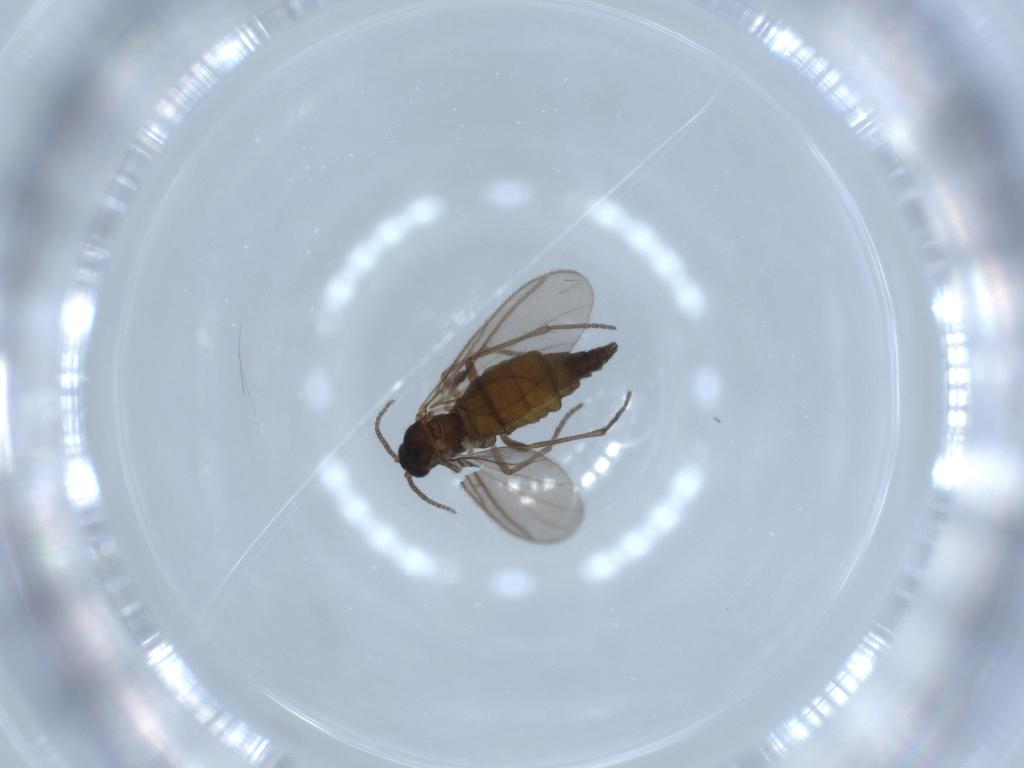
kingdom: Animalia
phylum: Arthropoda
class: Insecta
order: Diptera
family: Sciaridae
